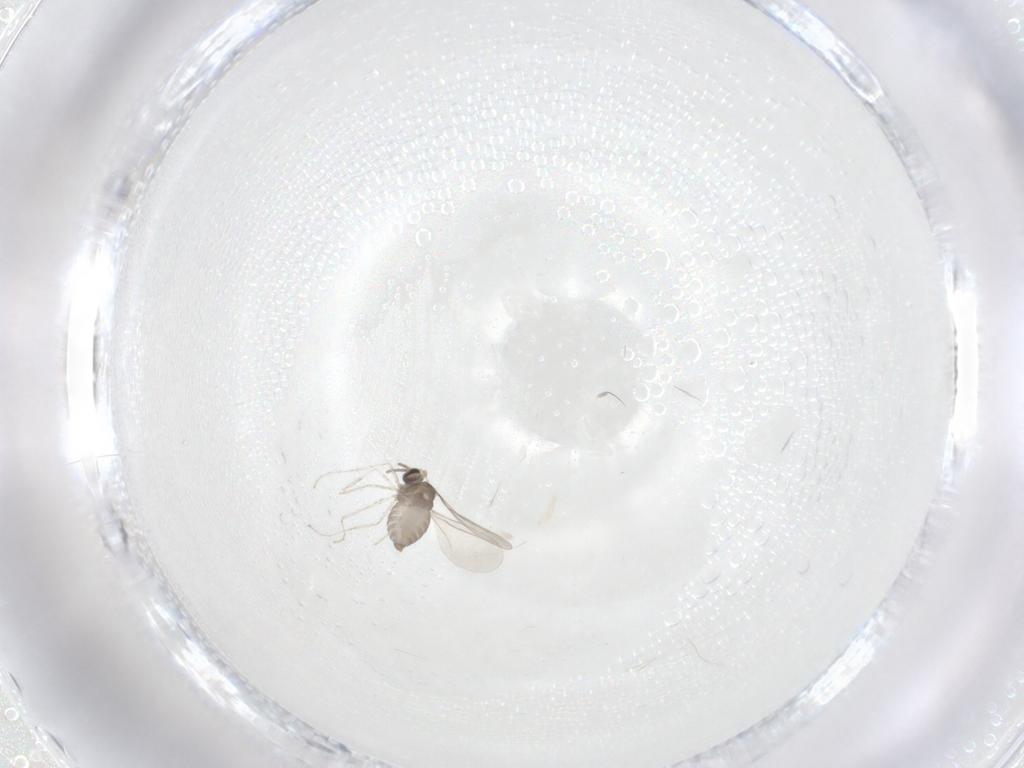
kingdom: Animalia
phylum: Arthropoda
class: Insecta
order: Diptera
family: Cecidomyiidae
